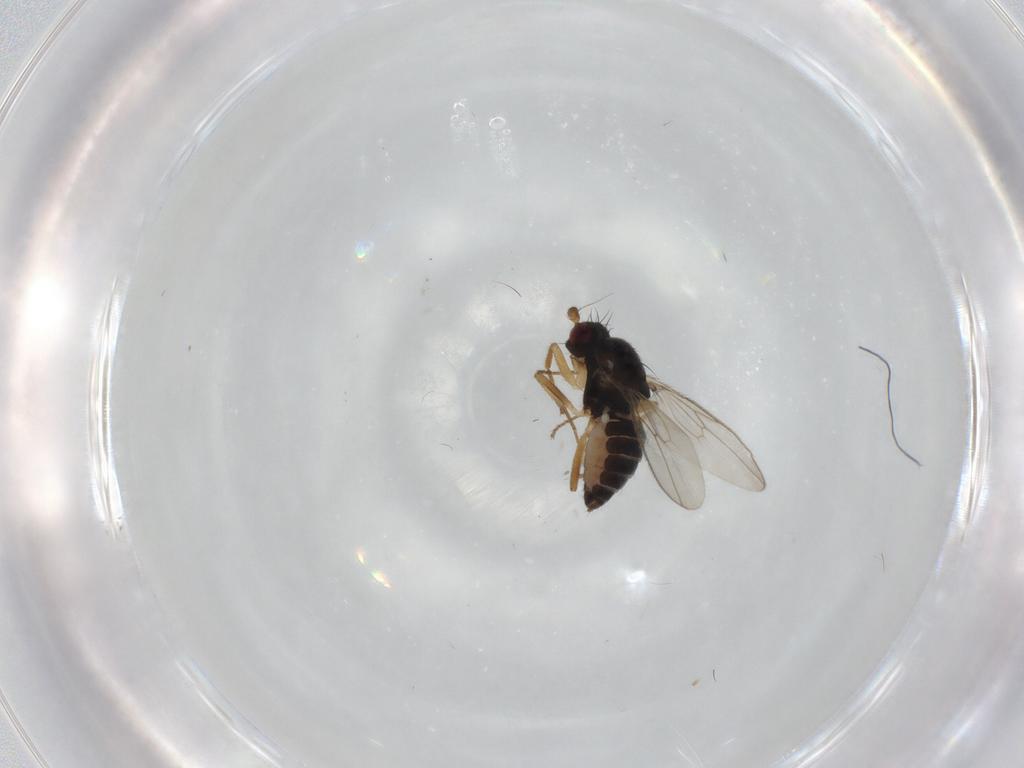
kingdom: Animalia
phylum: Arthropoda
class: Insecta
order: Diptera
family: Sphaeroceridae
